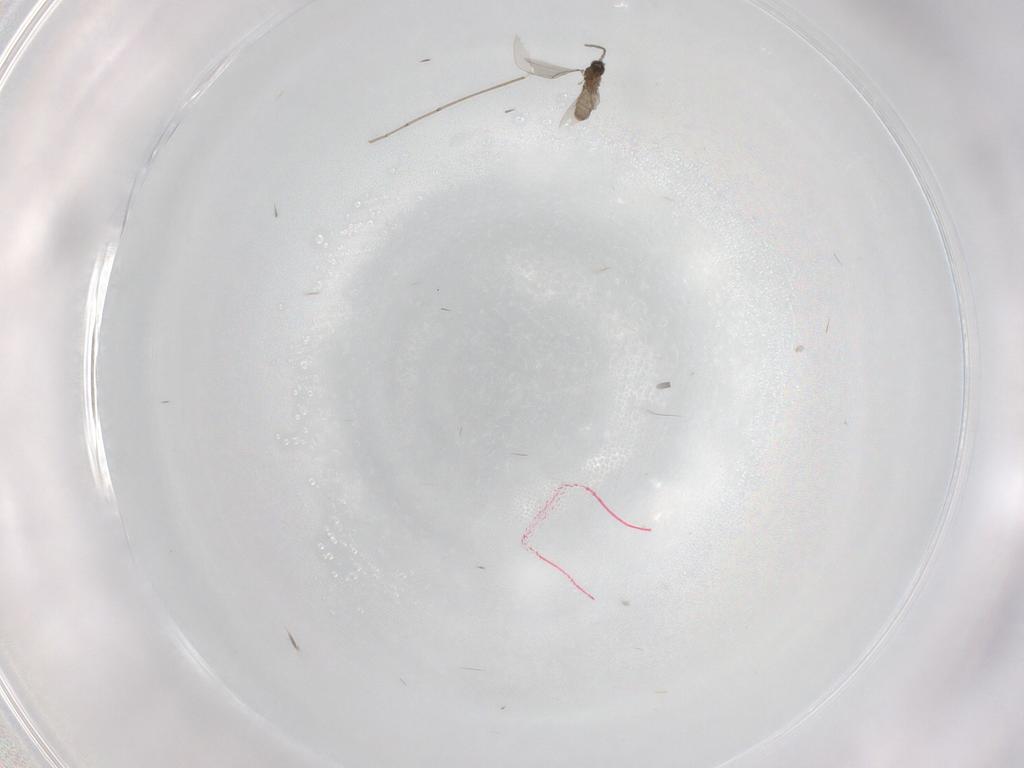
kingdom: Animalia
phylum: Arthropoda
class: Insecta
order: Diptera
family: Cecidomyiidae
